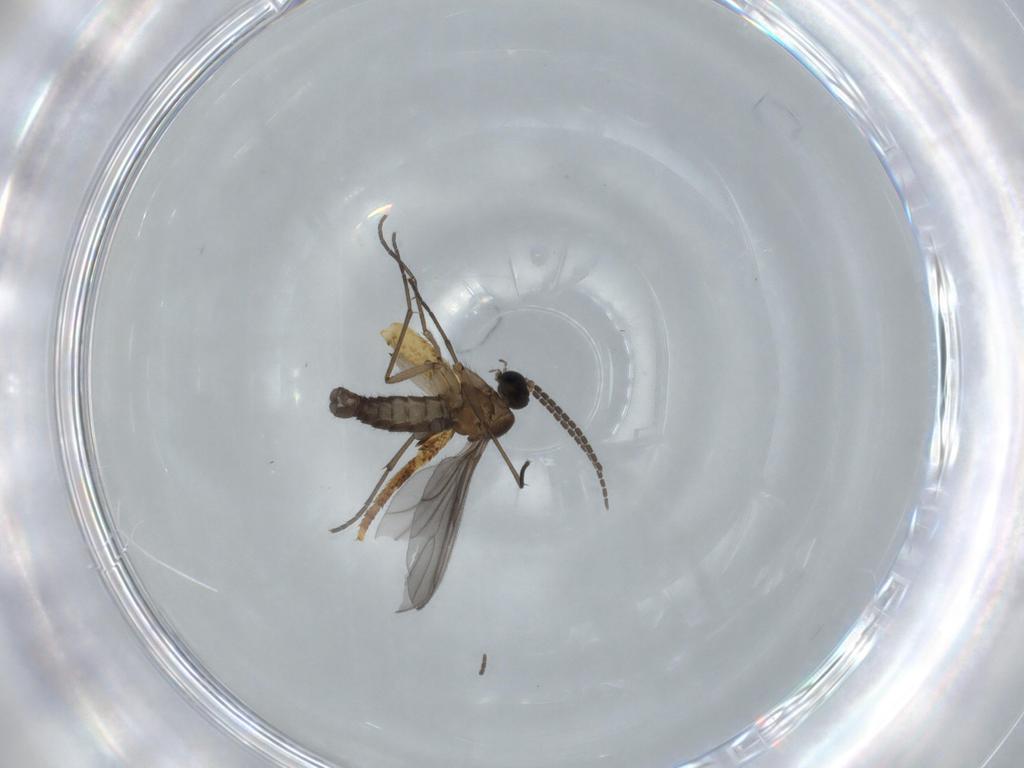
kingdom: Animalia
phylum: Arthropoda
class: Insecta
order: Diptera
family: Sciaridae
